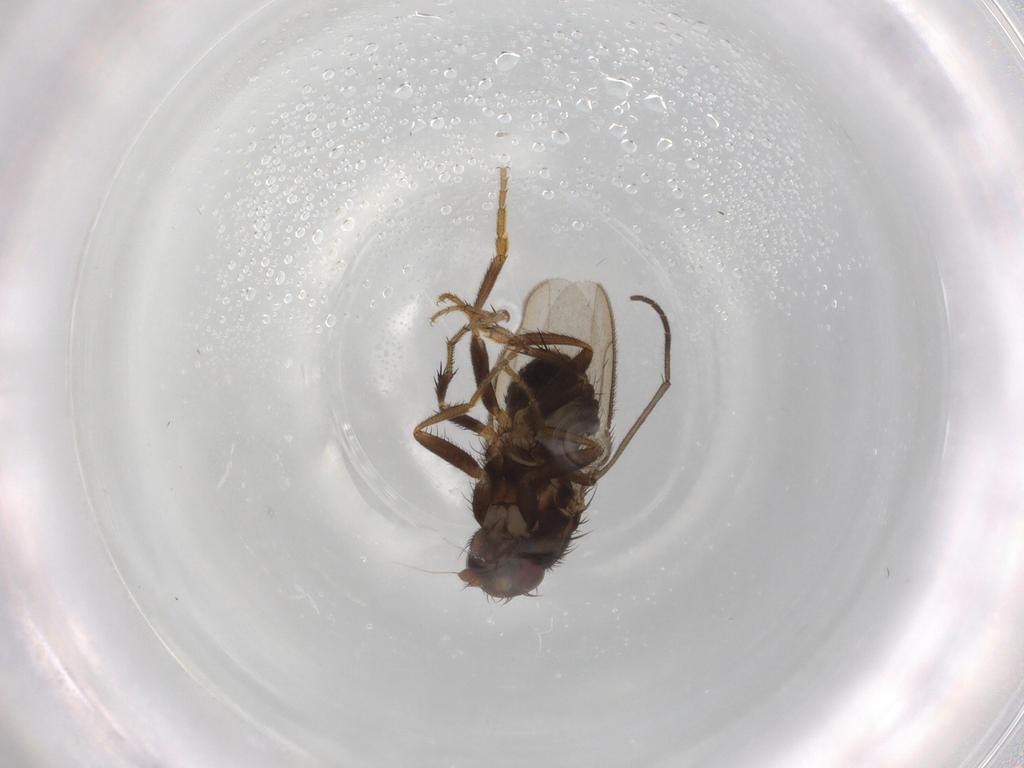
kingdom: Animalia
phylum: Arthropoda
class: Insecta
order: Diptera
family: Sphaeroceridae
